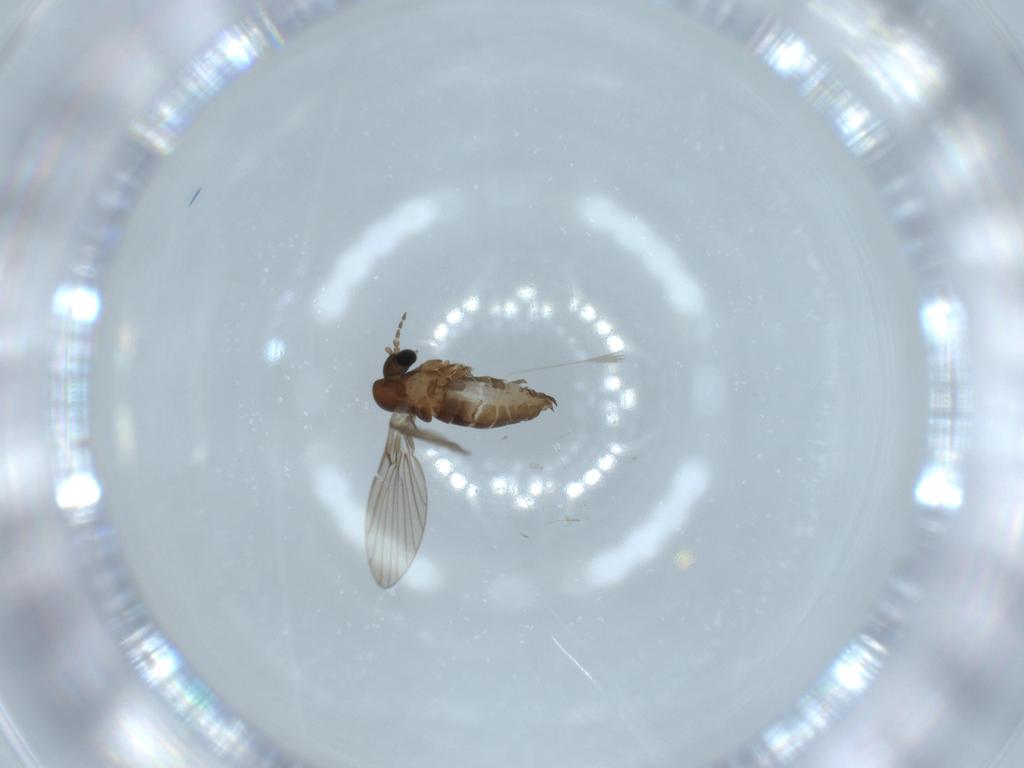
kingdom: Animalia
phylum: Arthropoda
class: Insecta
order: Diptera
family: Psychodidae
